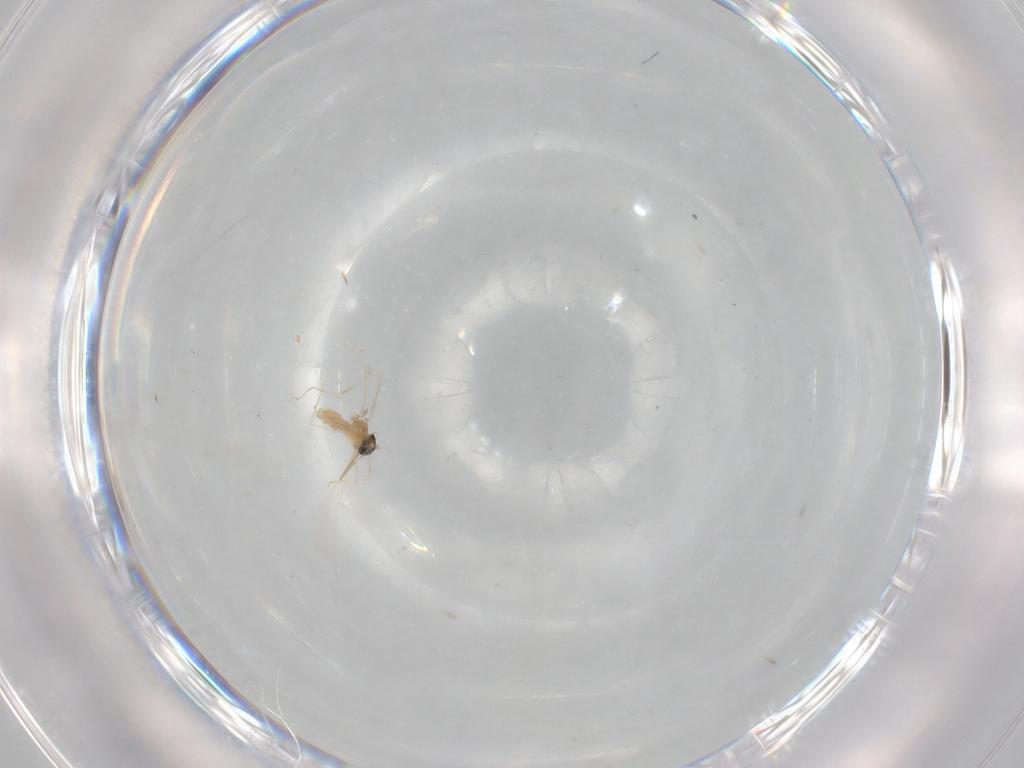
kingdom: Animalia
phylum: Arthropoda
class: Insecta
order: Diptera
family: Chironomidae
